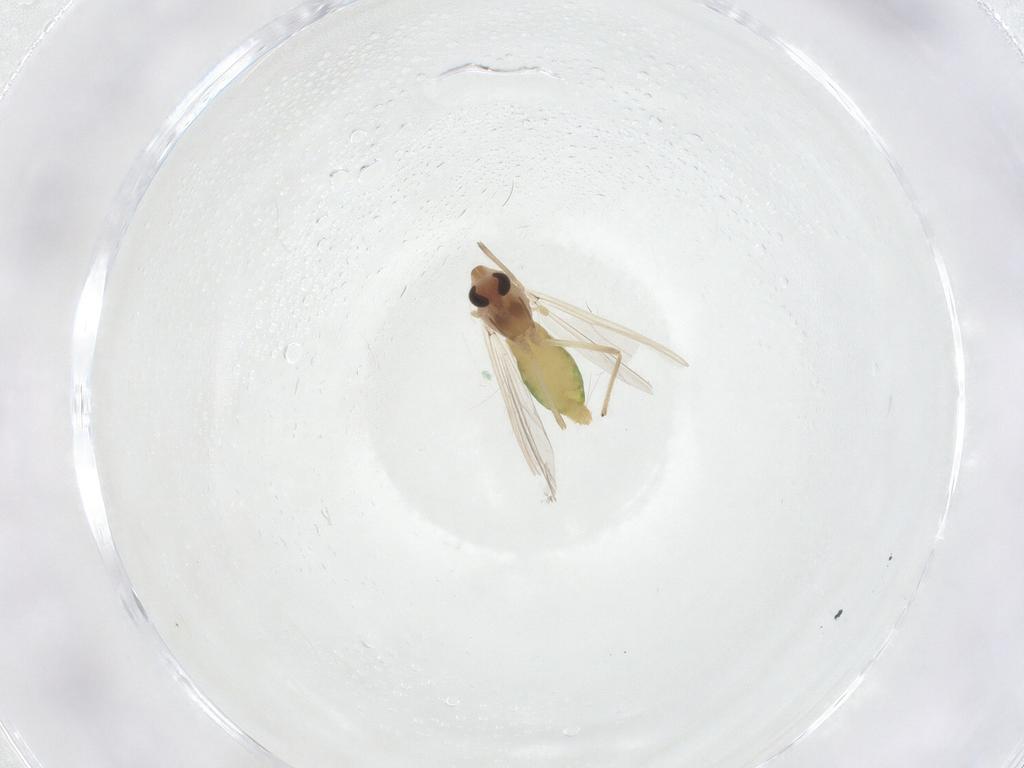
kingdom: Animalia
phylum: Arthropoda
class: Insecta
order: Diptera
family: Chironomidae
